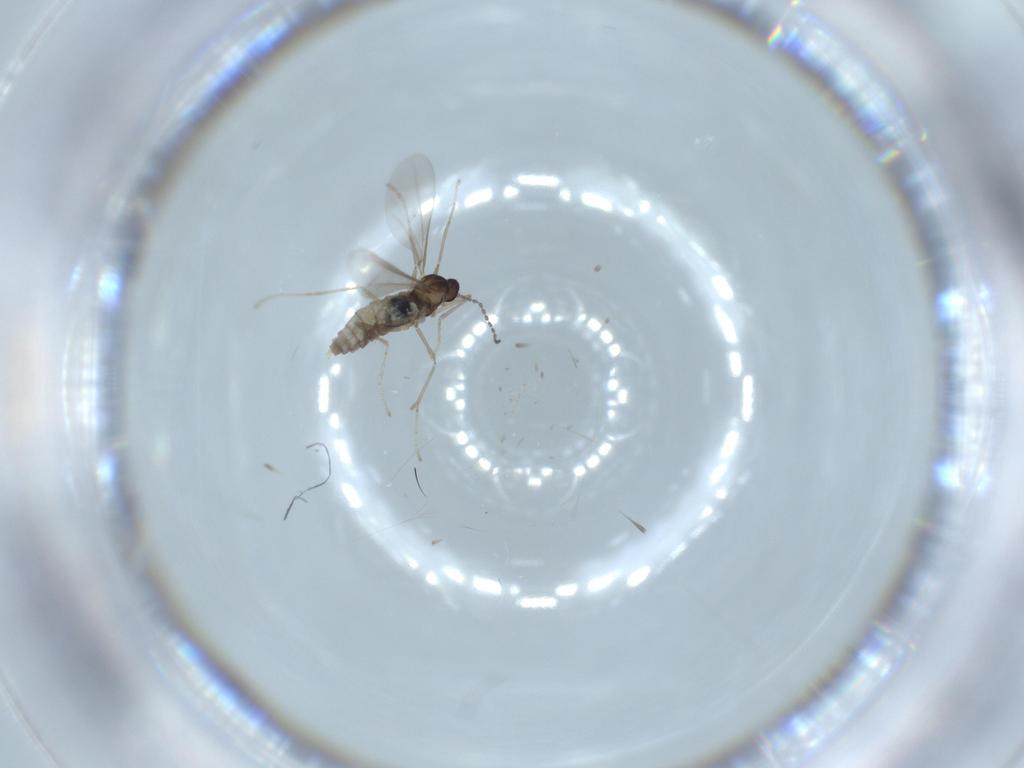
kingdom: Animalia
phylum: Arthropoda
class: Insecta
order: Diptera
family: Cecidomyiidae
